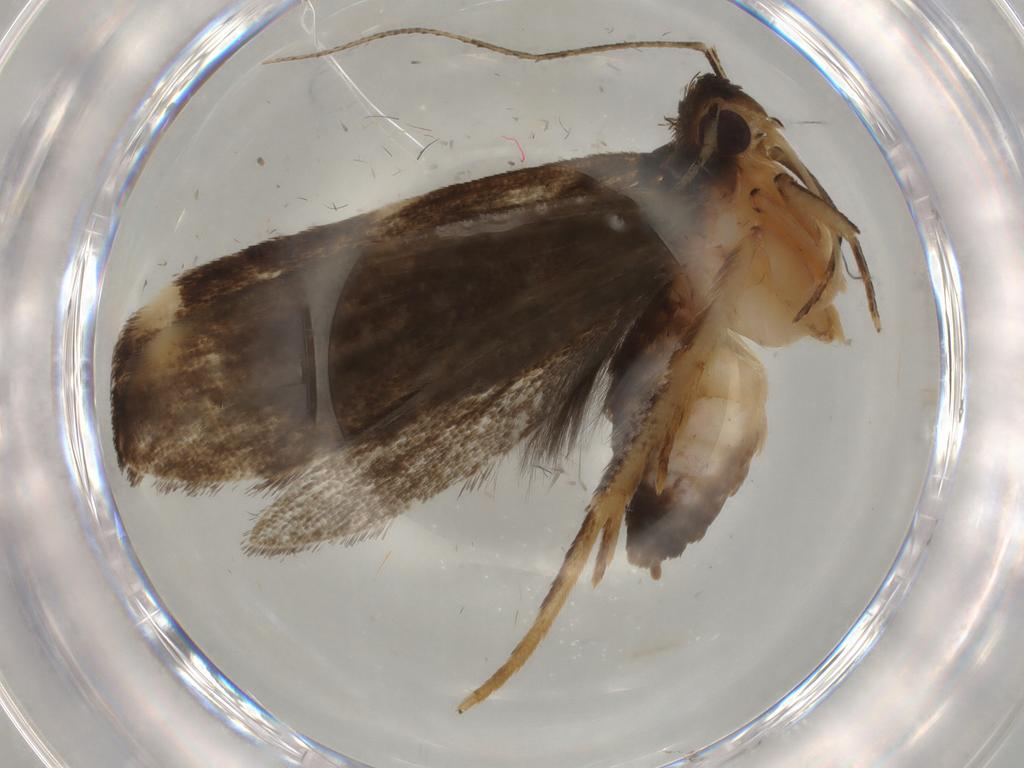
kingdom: Animalia
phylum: Arthropoda
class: Insecta
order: Lepidoptera
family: Gelechiidae
